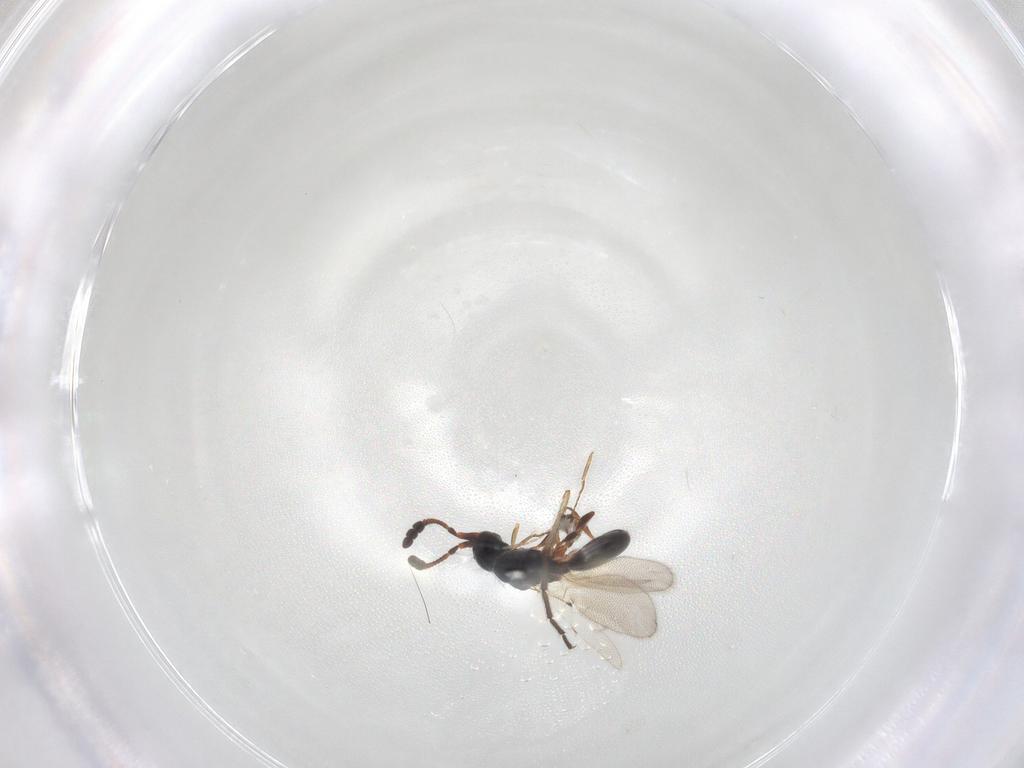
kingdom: Animalia
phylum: Arthropoda
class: Insecta
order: Hymenoptera
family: Diapriidae
